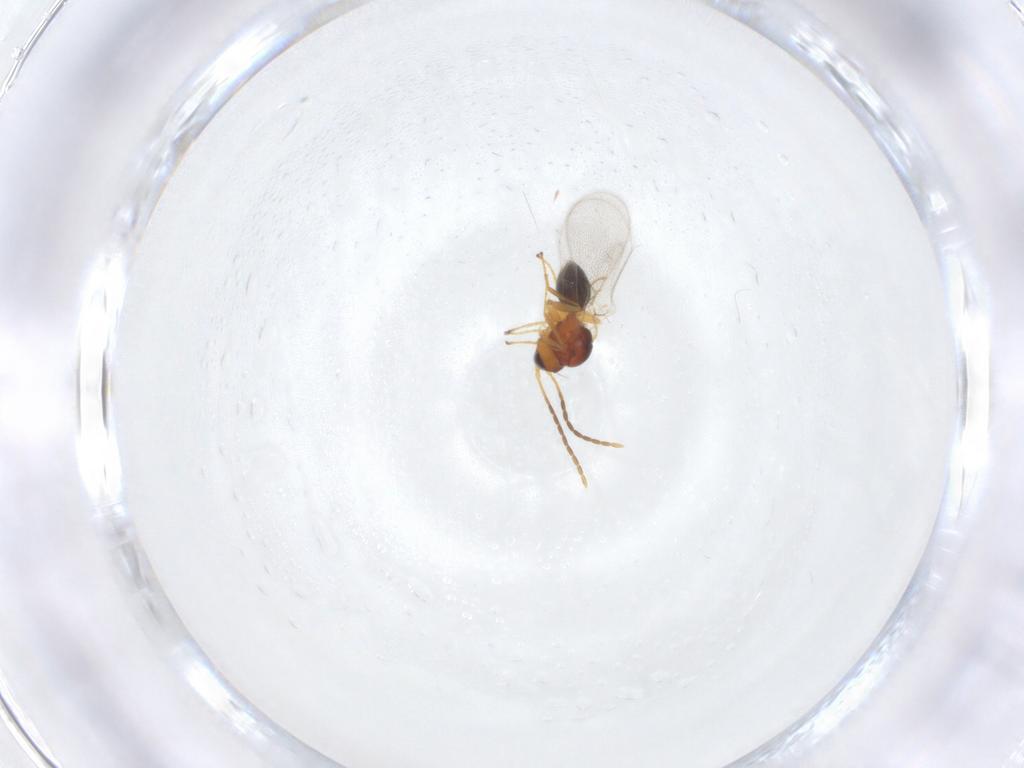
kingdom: Animalia
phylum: Arthropoda
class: Insecta
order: Hymenoptera
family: Figitidae
